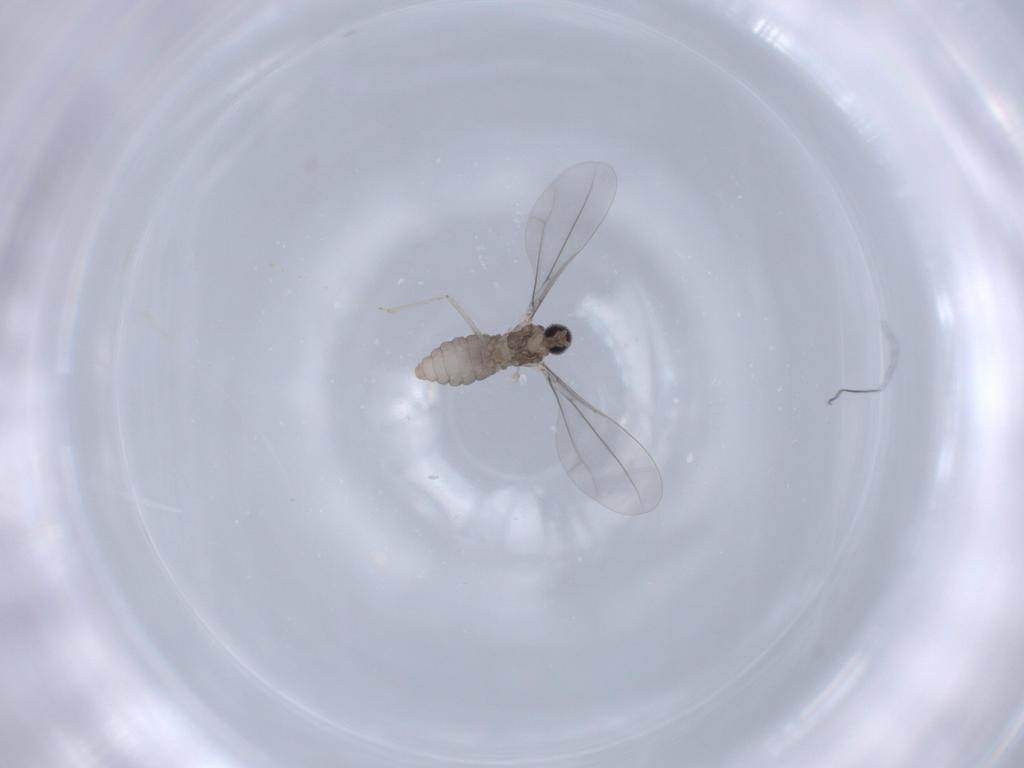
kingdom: Animalia
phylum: Arthropoda
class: Insecta
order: Diptera
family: Cecidomyiidae
